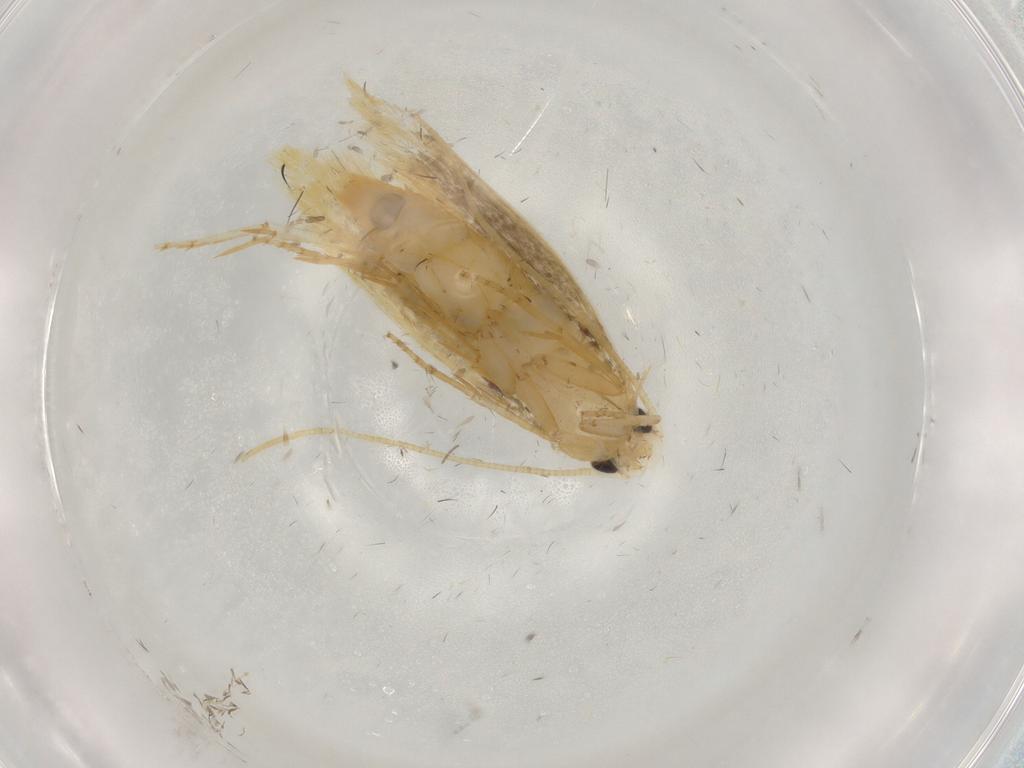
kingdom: Animalia
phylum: Arthropoda
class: Insecta
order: Lepidoptera
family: Tineidae
